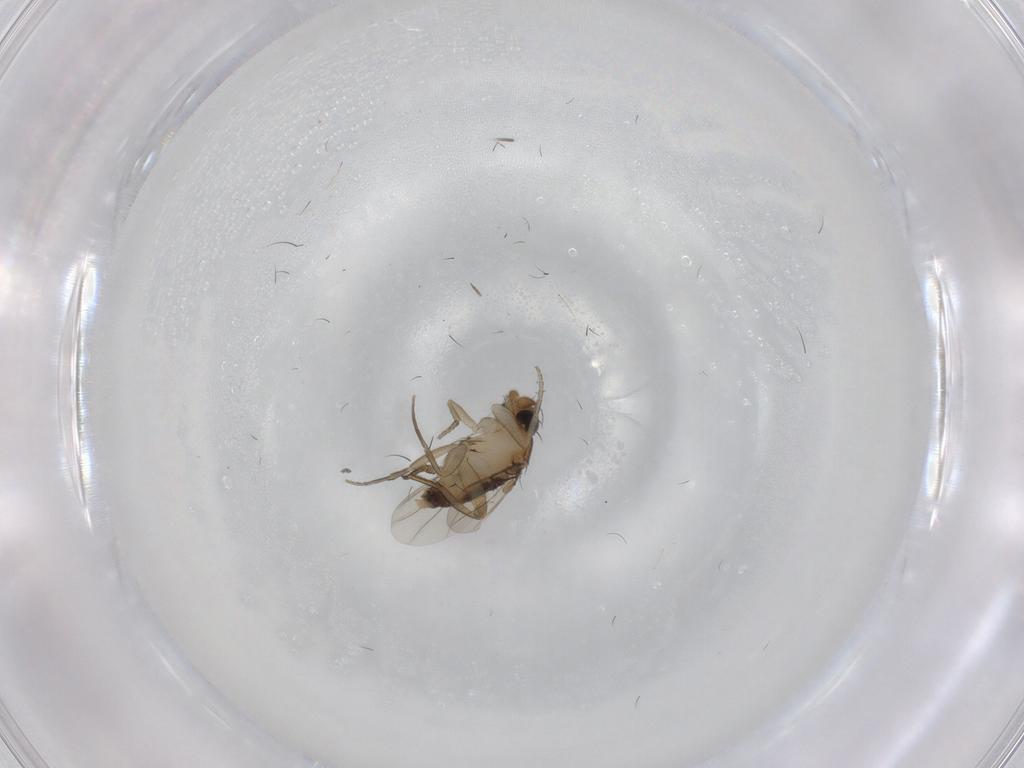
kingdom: Animalia
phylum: Arthropoda
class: Insecta
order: Diptera
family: Phoridae
